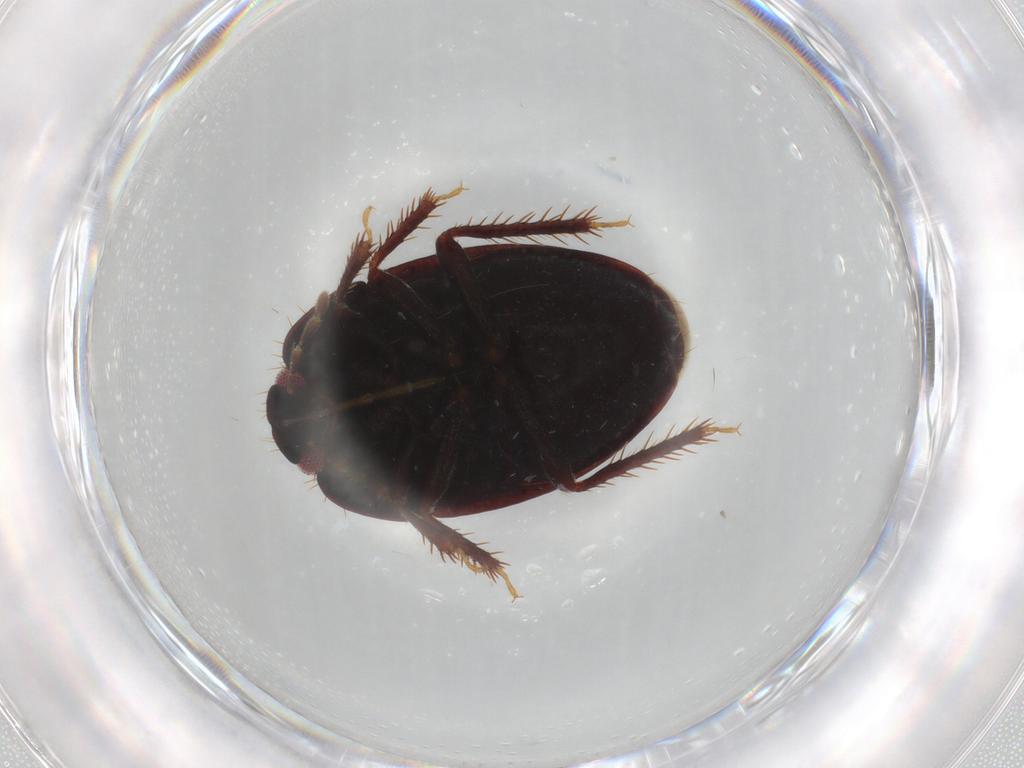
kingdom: Animalia
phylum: Arthropoda
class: Insecta
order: Hemiptera
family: Cydnidae
